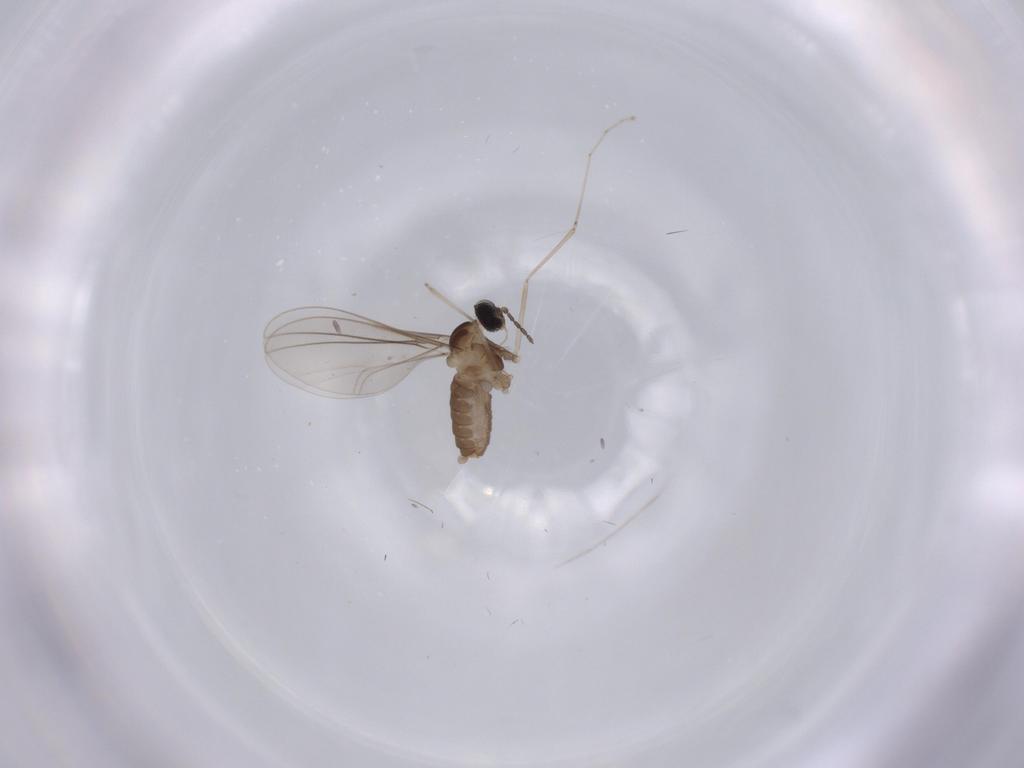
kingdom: Animalia
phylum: Arthropoda
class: Insecta
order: Diptera
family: Cecidomyiidae
